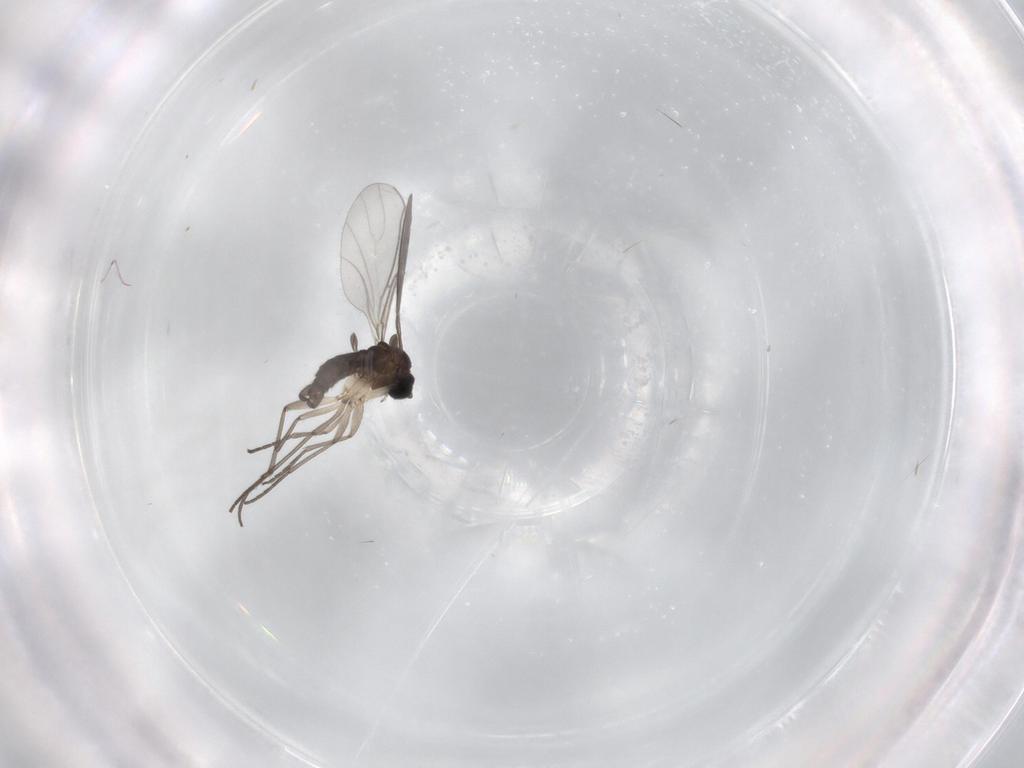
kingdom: Animalia
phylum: Arthropoda
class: Insecta
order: Diptera
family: Sciaridae
